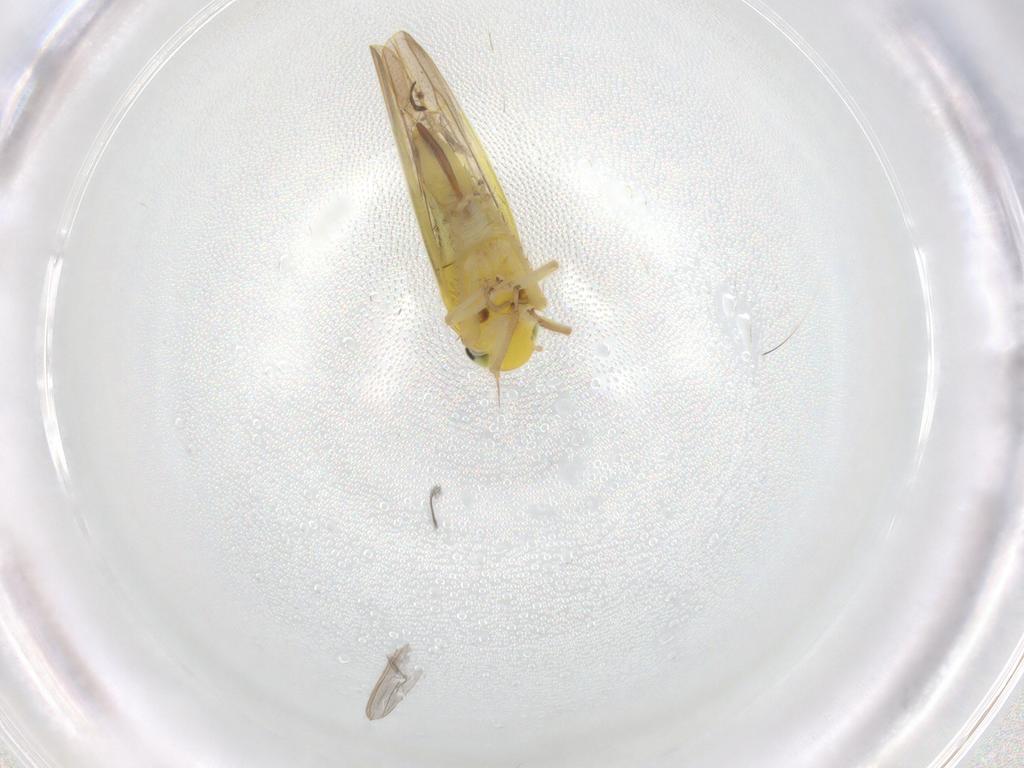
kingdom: Animalia
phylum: Arthropoda
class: Insecta
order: Hemiptera
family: Cicadellidae
